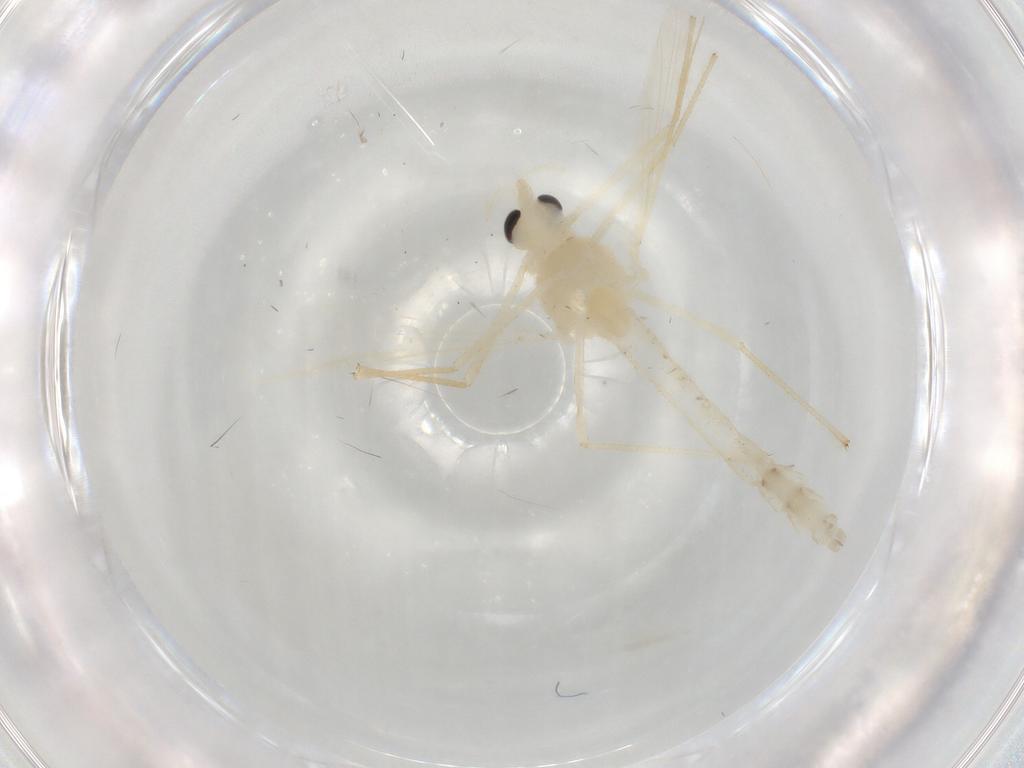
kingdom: Animalia
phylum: Arthropoda
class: Insecta
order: Diptera
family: Chironomidae
